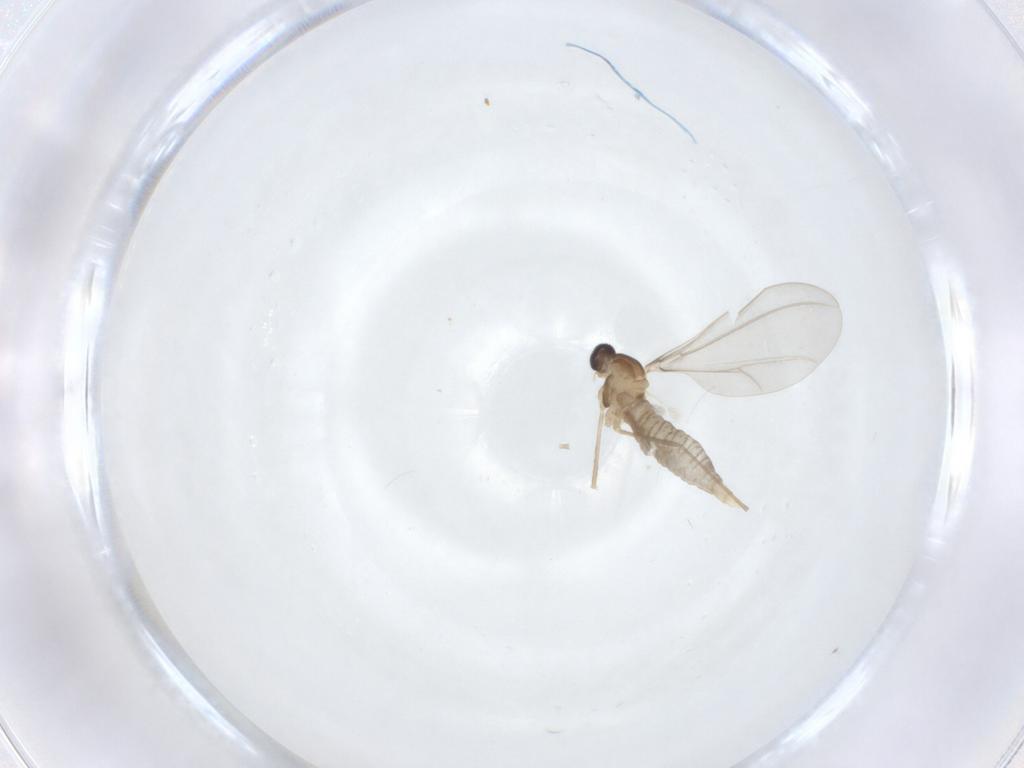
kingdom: Animalia
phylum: Arthropoda
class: Insecta
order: Diptera
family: Cecidomyiidae
